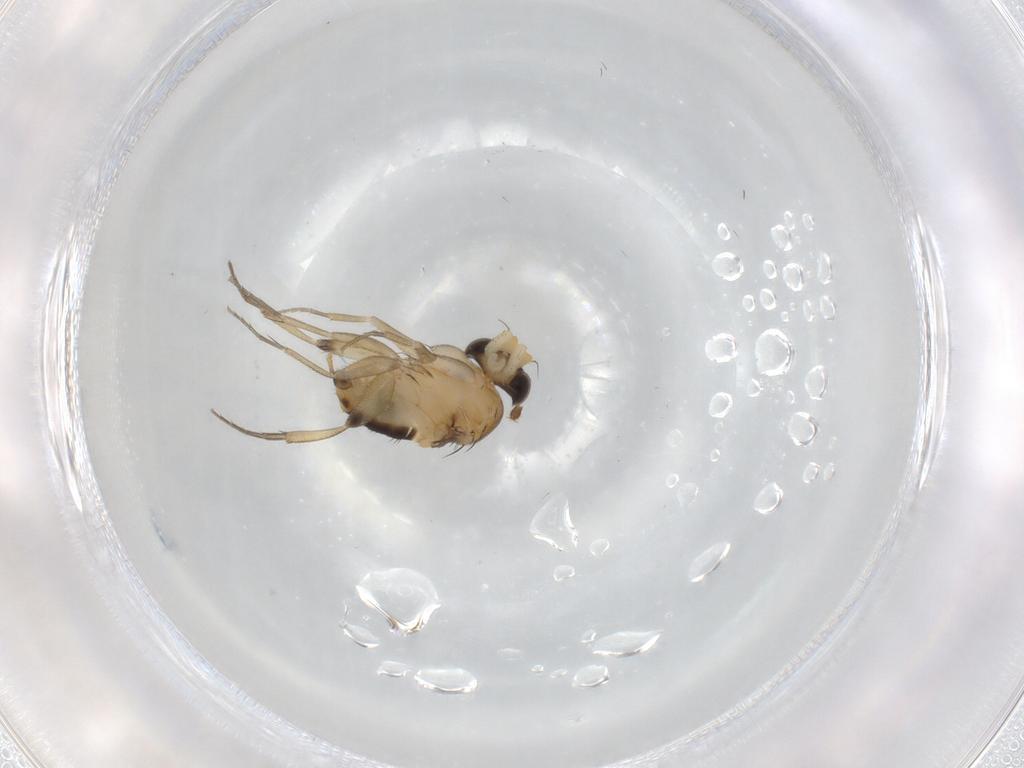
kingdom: Animalia
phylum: Arthropoda
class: Insecta
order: Diptera
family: Phoridae
